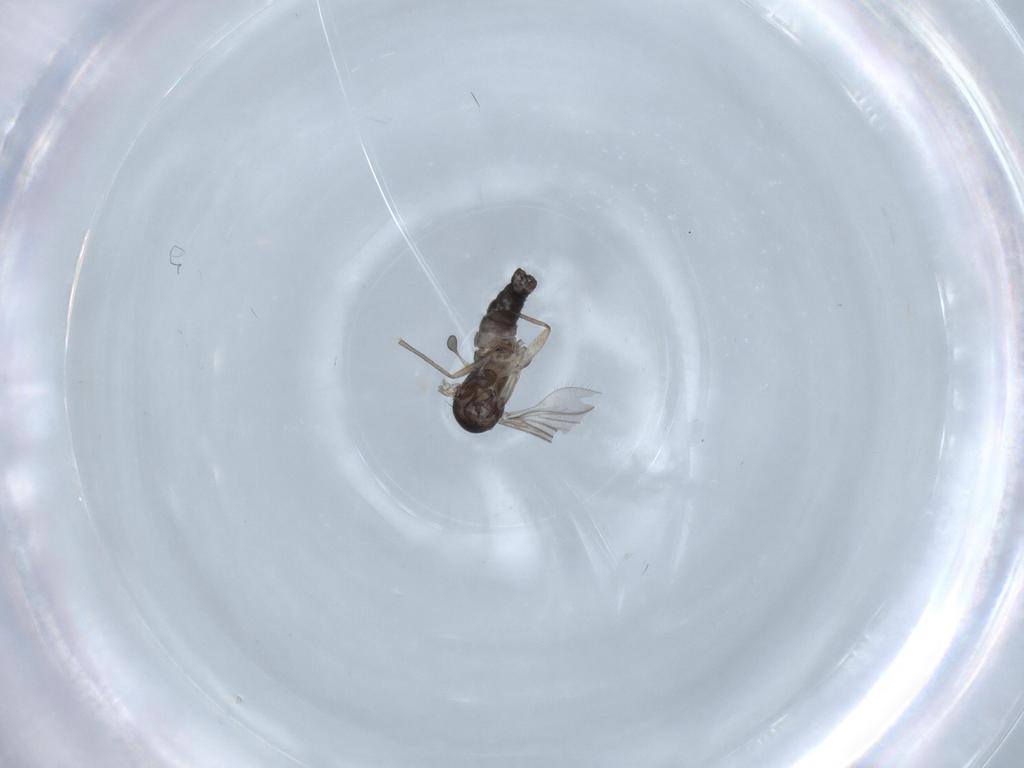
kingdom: Animalia
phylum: Arthropoda
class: Insecta
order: Diptera
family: Sciaridae
